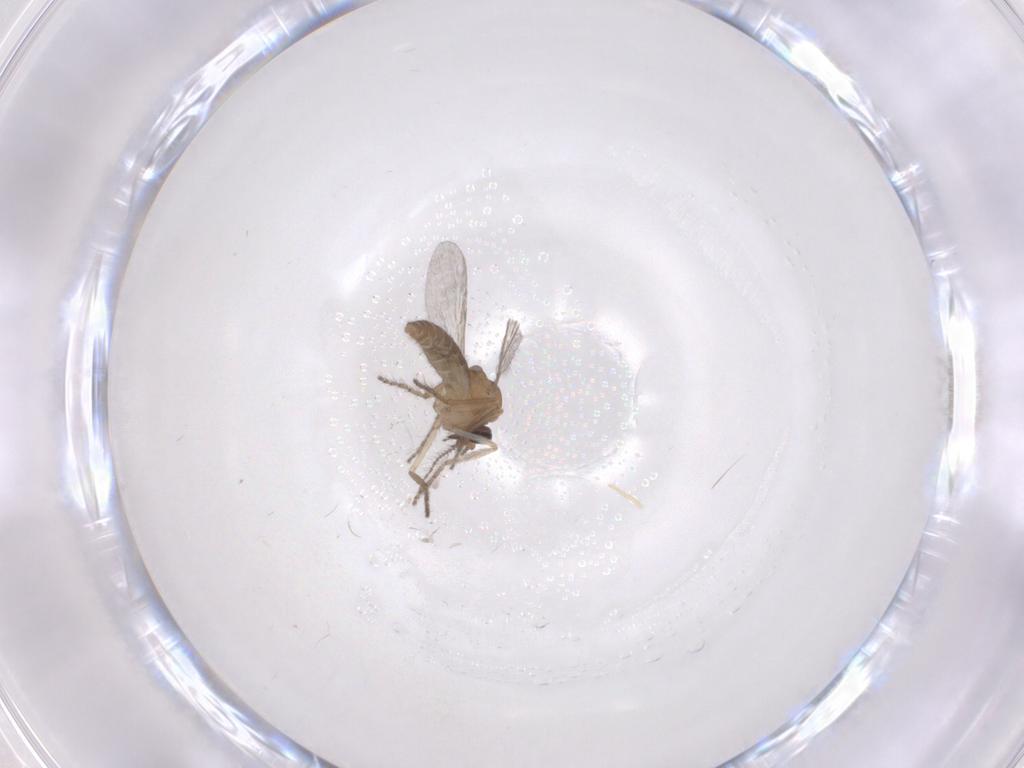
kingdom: Animalia
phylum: Arthropoda
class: Insecta
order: Diptera
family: Ceratopogonidae
